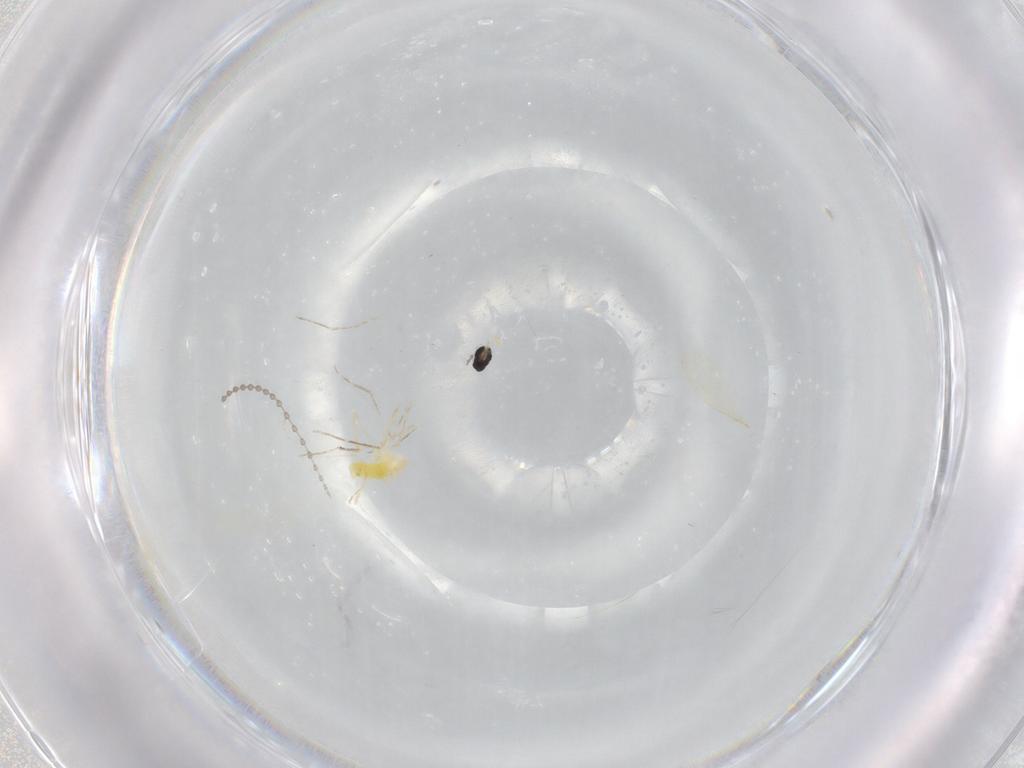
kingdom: Animalia
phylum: Arthropoda
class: Insecta
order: Diptera
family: Cecidomyiidae
